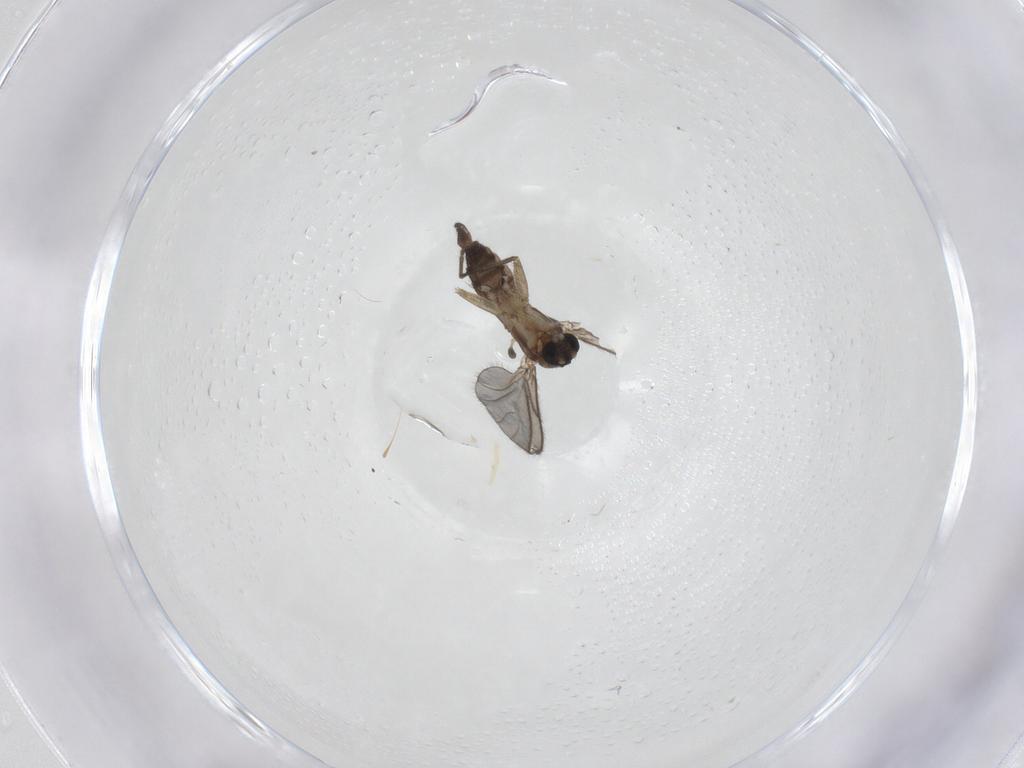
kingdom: Animalia
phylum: Arthropoda
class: Insecta
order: Diptera
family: Sciaridae
